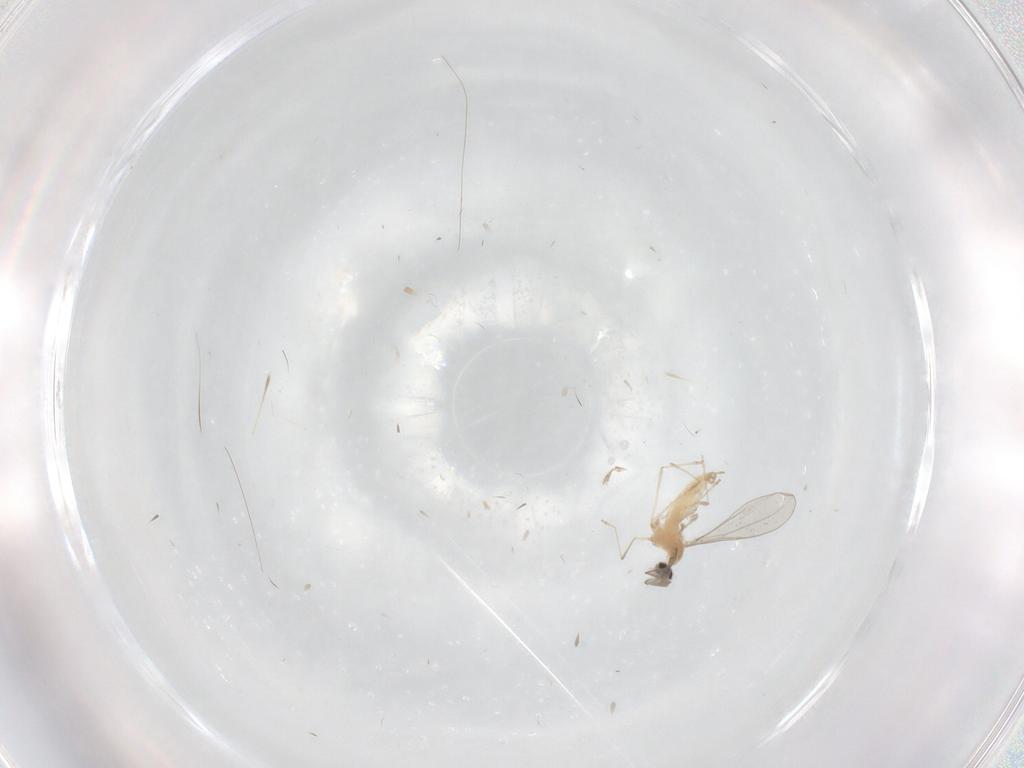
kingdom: Animalia
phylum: Arthropoda
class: Insecta
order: Diptera
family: Cecidomyiidae
